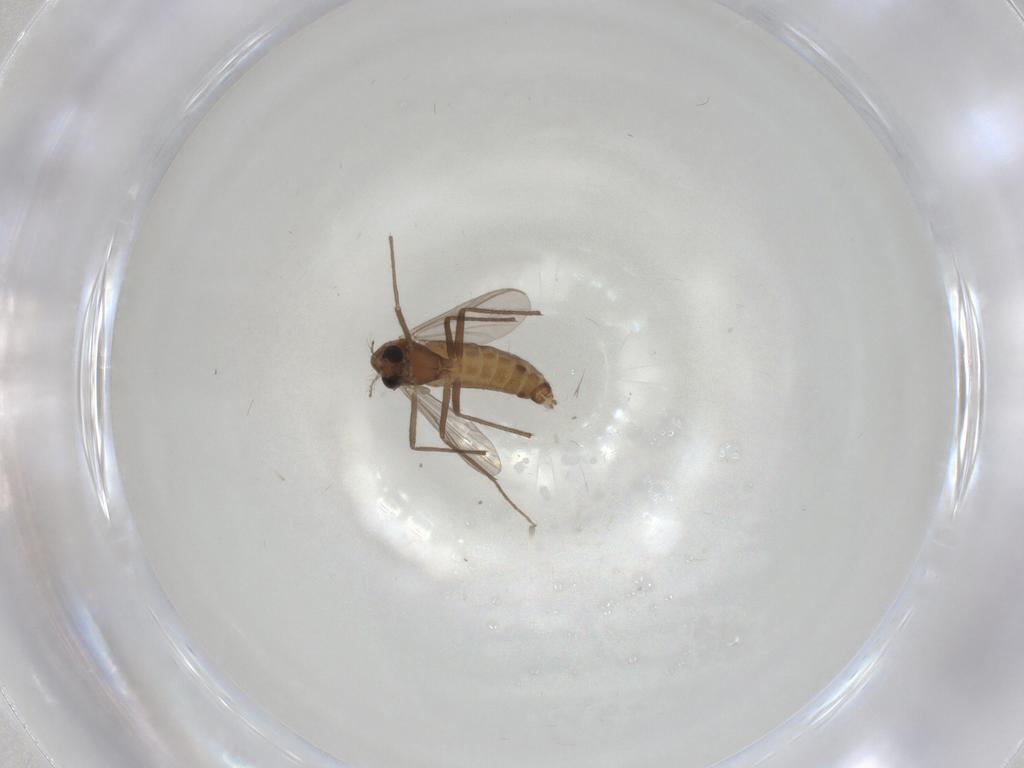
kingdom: Animalia
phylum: Arthropoda
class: Insecta
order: Diptera
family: Chironomidae
